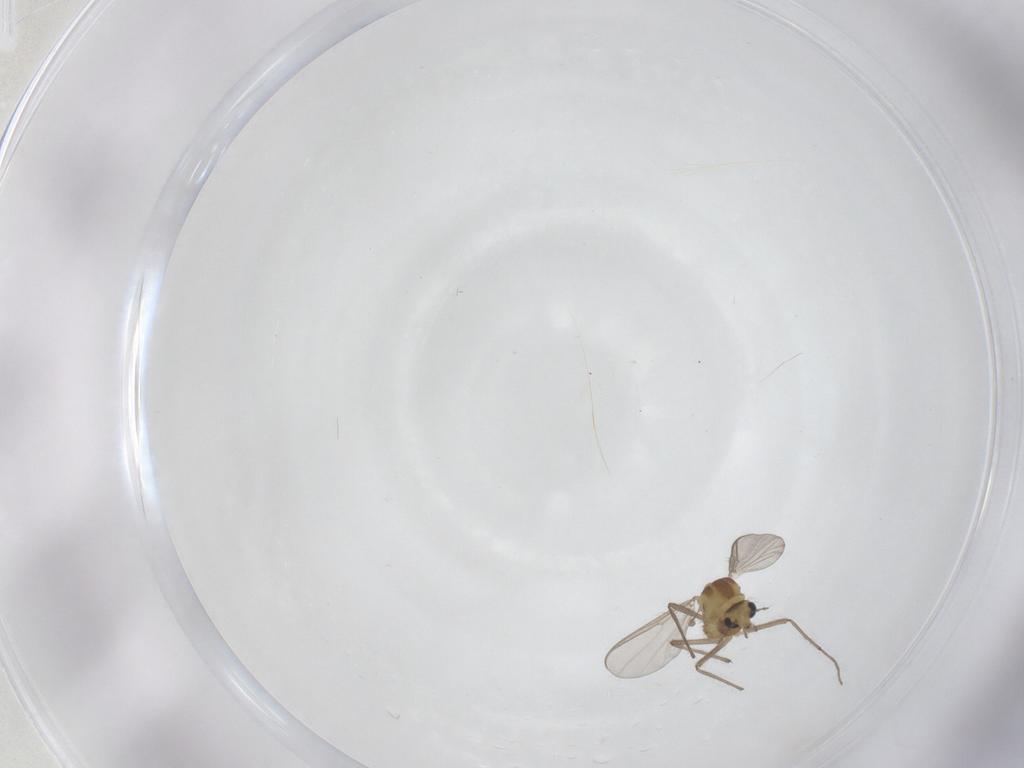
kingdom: Animalia
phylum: Arthropoda
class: Insecta
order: Diptera
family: Chironomidae
